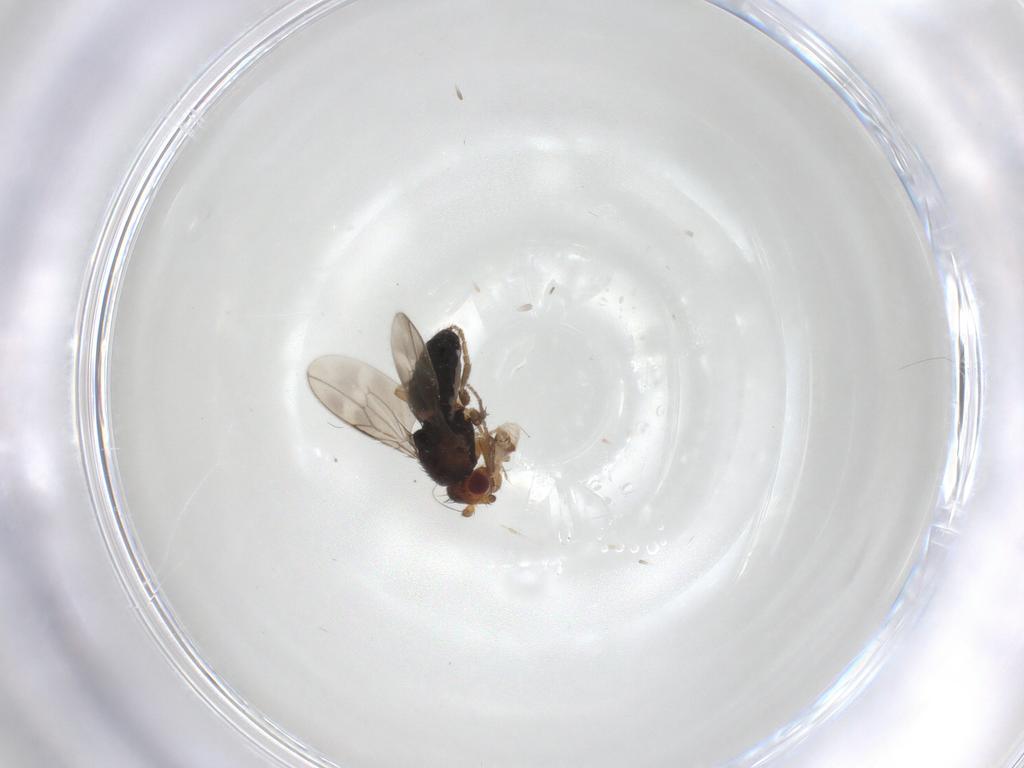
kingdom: Animalia
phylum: Arthropoda
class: Insecta
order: Diptera
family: Sphaeroceridae
